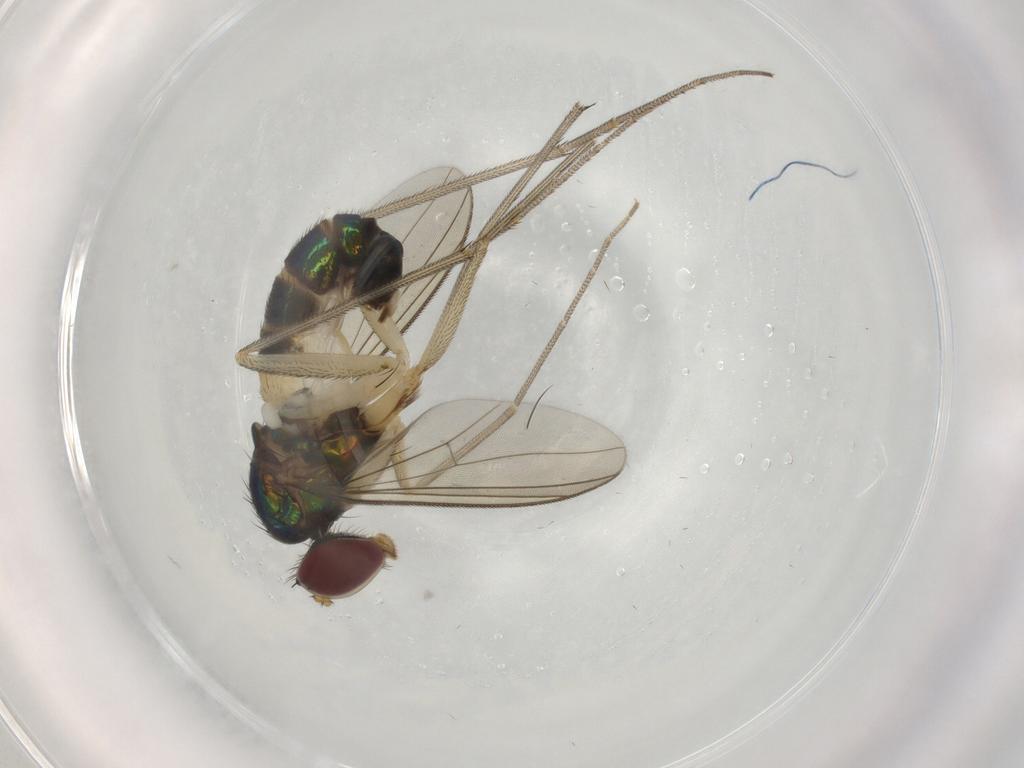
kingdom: Animalia
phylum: Arthropoda
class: Insecta
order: Diptera
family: Dolichopodidae
